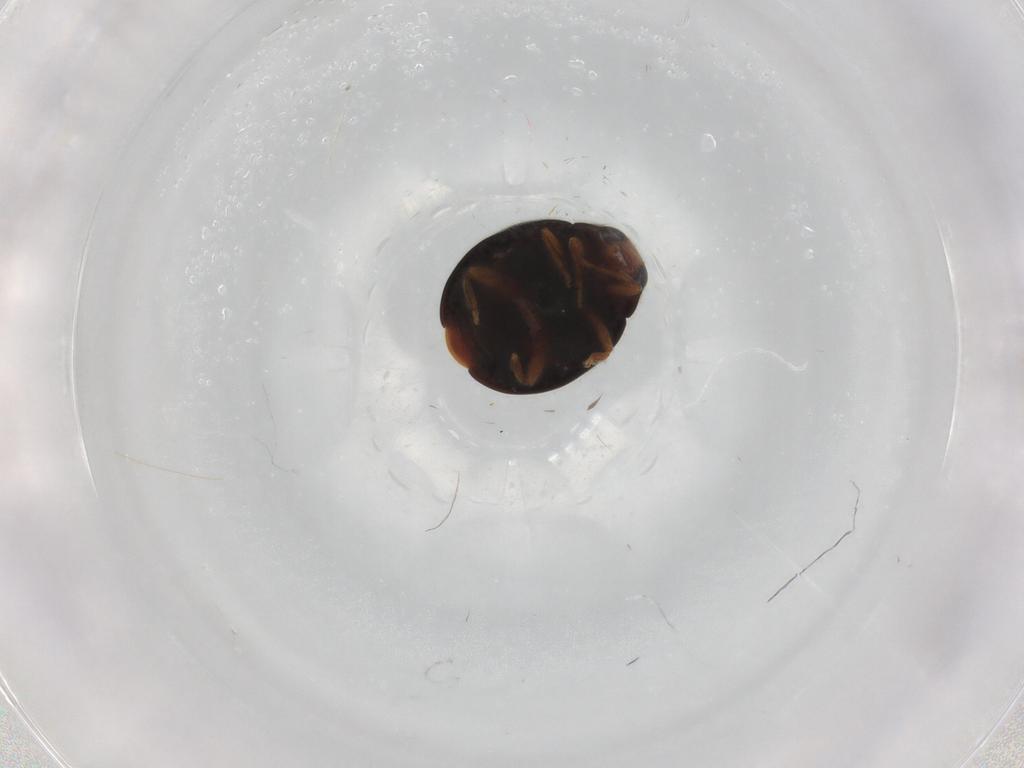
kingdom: Animalia
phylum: Arthropoda
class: Insecta
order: Coleoptera
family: Coccinellidae
